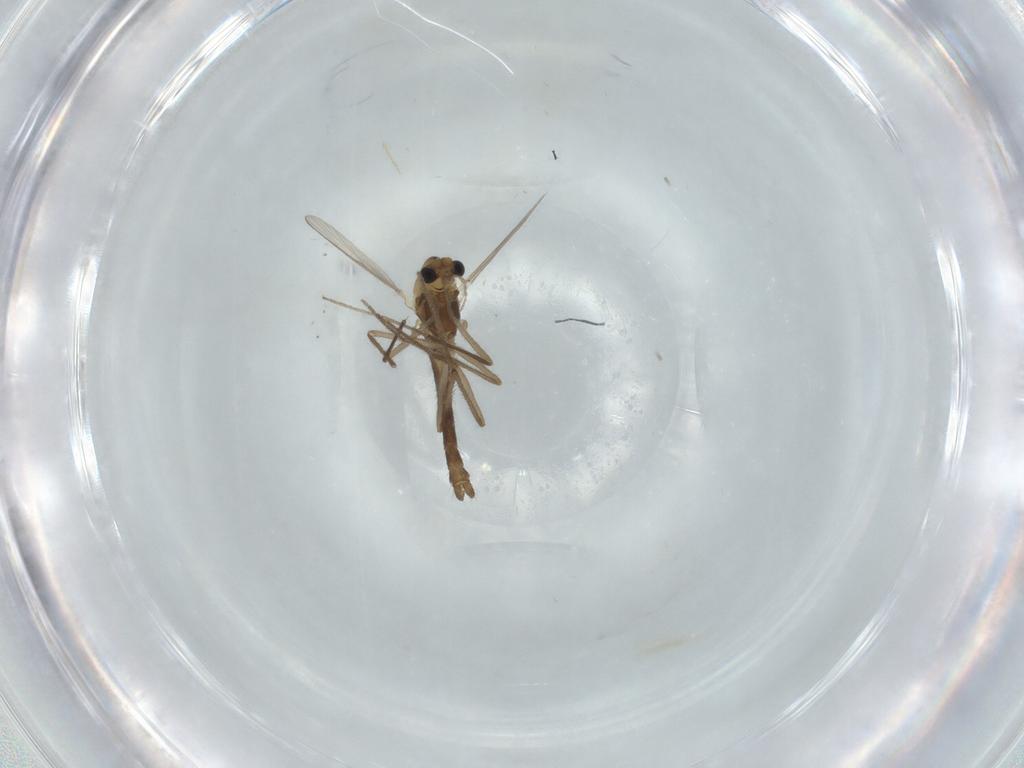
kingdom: Animalia
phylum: Arthropoda
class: Insecta
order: Diptera
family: Chironomidae
